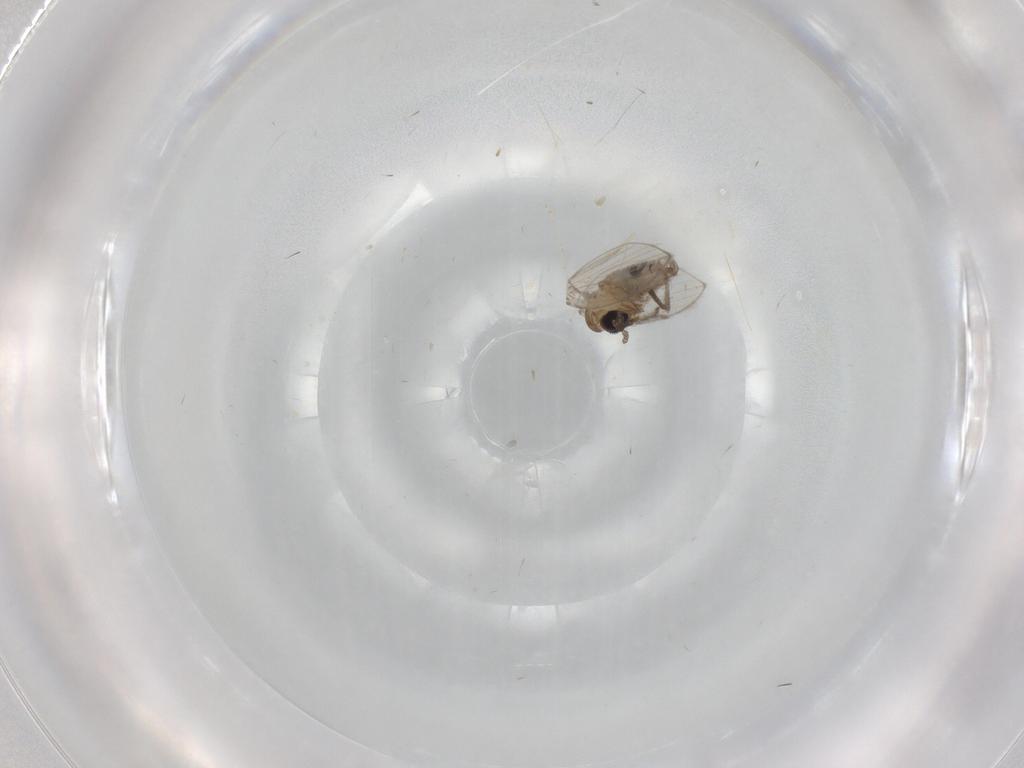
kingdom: Animalia
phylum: Arthropoda
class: Insecta
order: Diptera
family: Psychodidae
